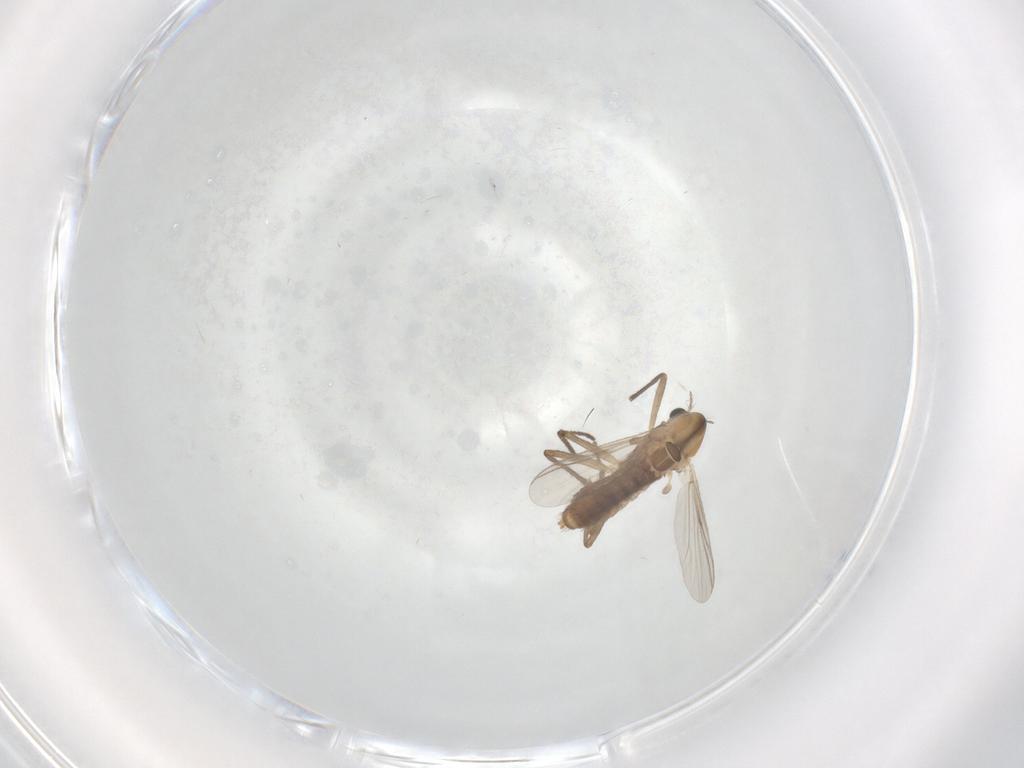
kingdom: Animalia
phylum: Arthropoda
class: Insecta
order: Diptera
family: Chironomidae
